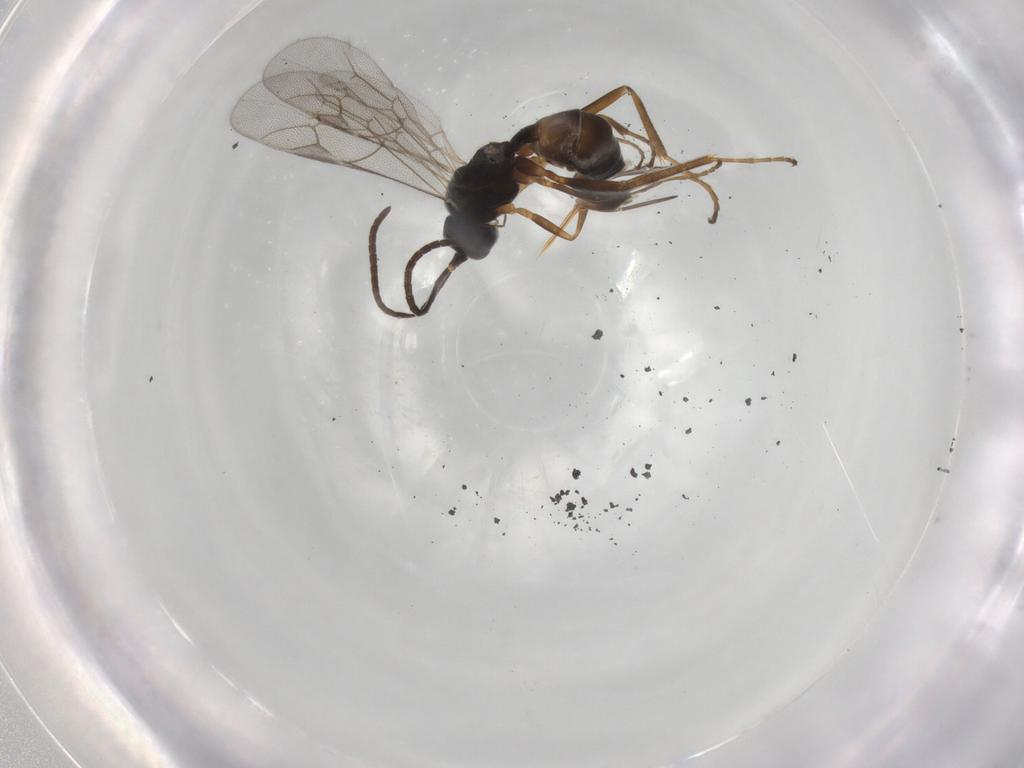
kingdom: Animalia
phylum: Arthropoda
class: Insecta
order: Hymenoptera
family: Ichneumonidae
